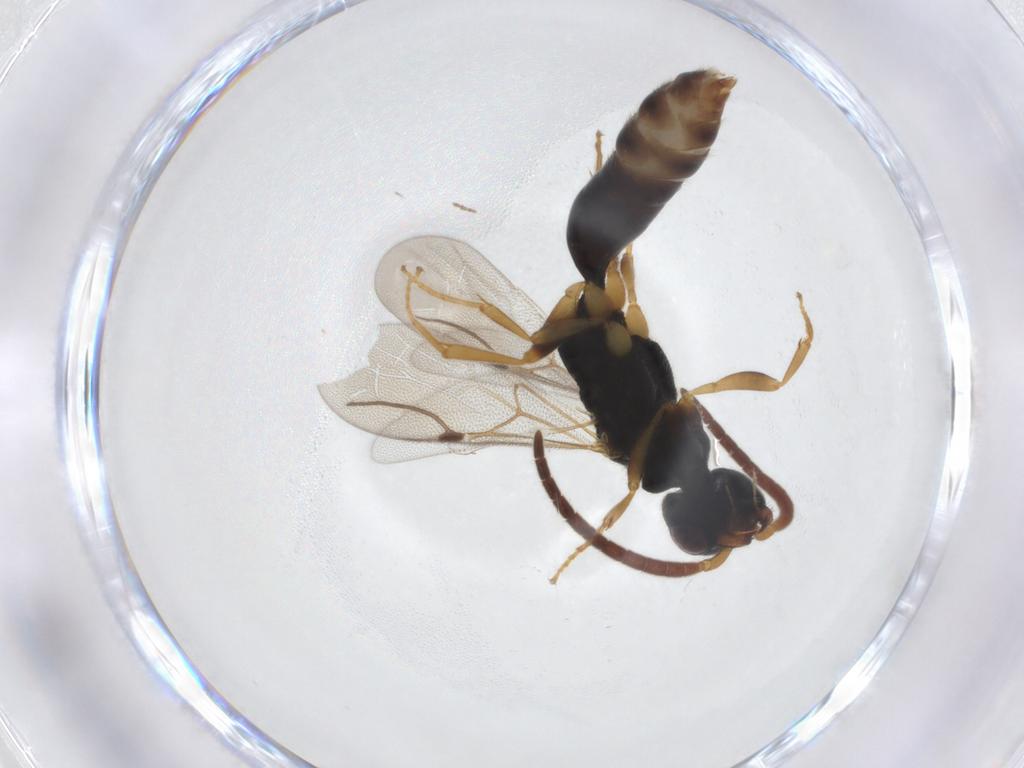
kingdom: Animalia
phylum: Arthropoda
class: Insecta
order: Hymenoptera
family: Bethylidae
